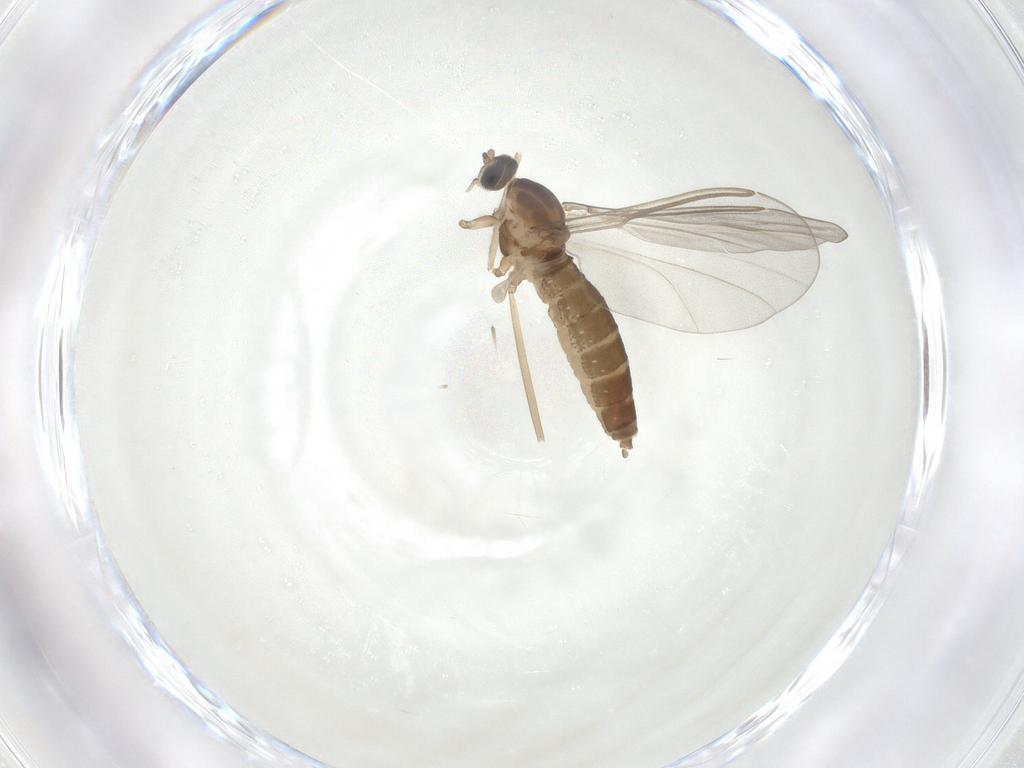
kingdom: Animalia
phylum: Arthropoda
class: Insecta
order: Diptera
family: Cecidomyiidae
